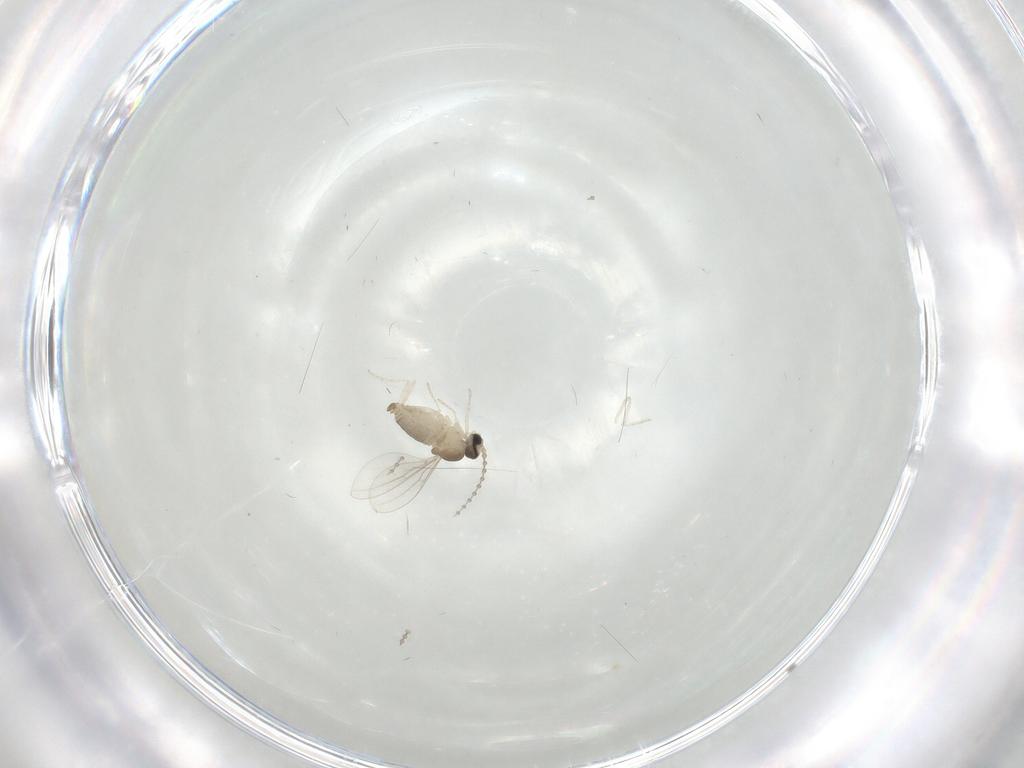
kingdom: Animalia
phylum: Arthropoda
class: Insecta
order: Diptera
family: Cecidomyiidae
